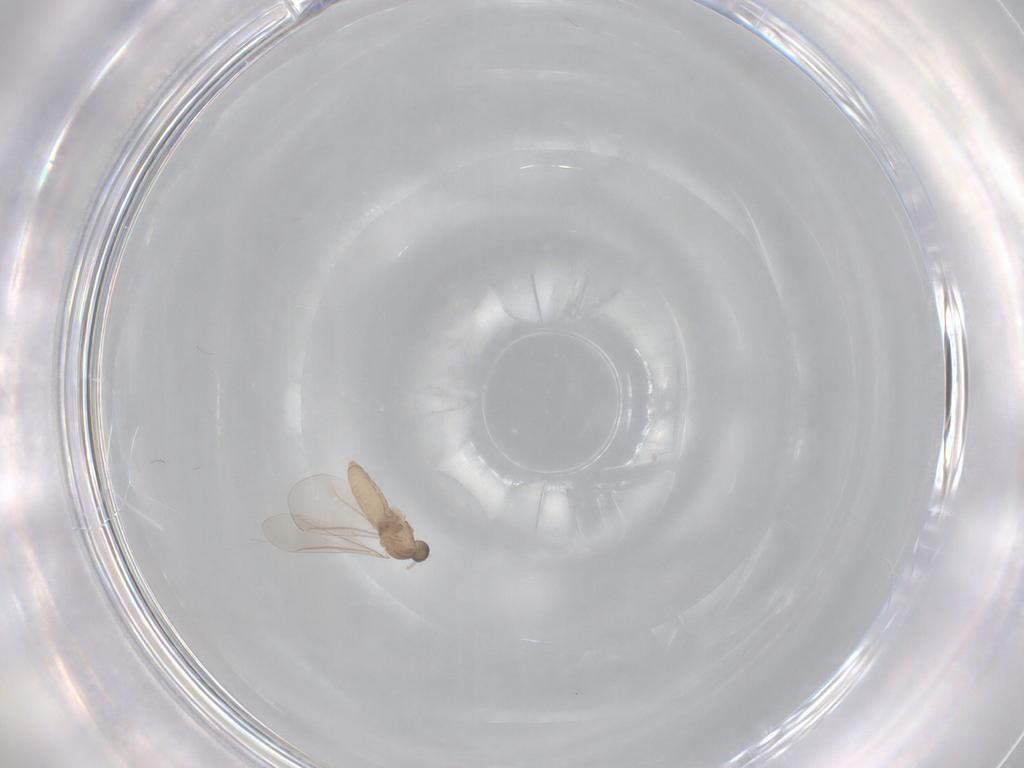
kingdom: Animalia
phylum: Arthropoda
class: Insecta
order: Diptera
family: Cecidomyiidae
